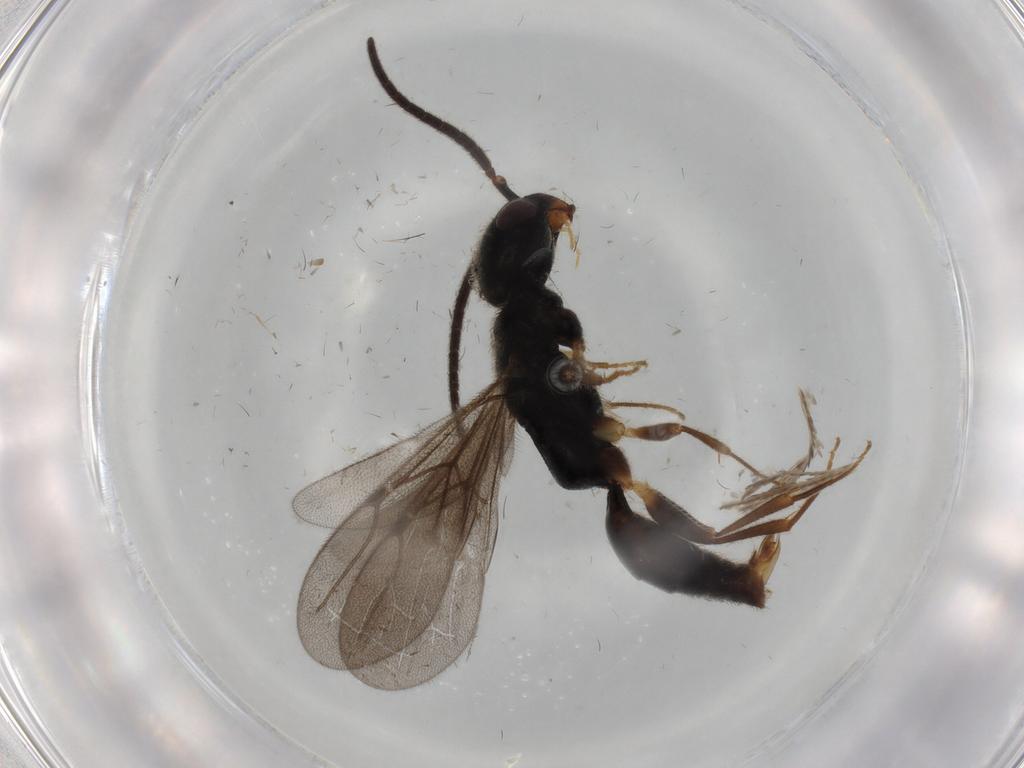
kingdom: Animalia
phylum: Arthropoda
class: Insecta
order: Hymenoptera
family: Bethylidae
